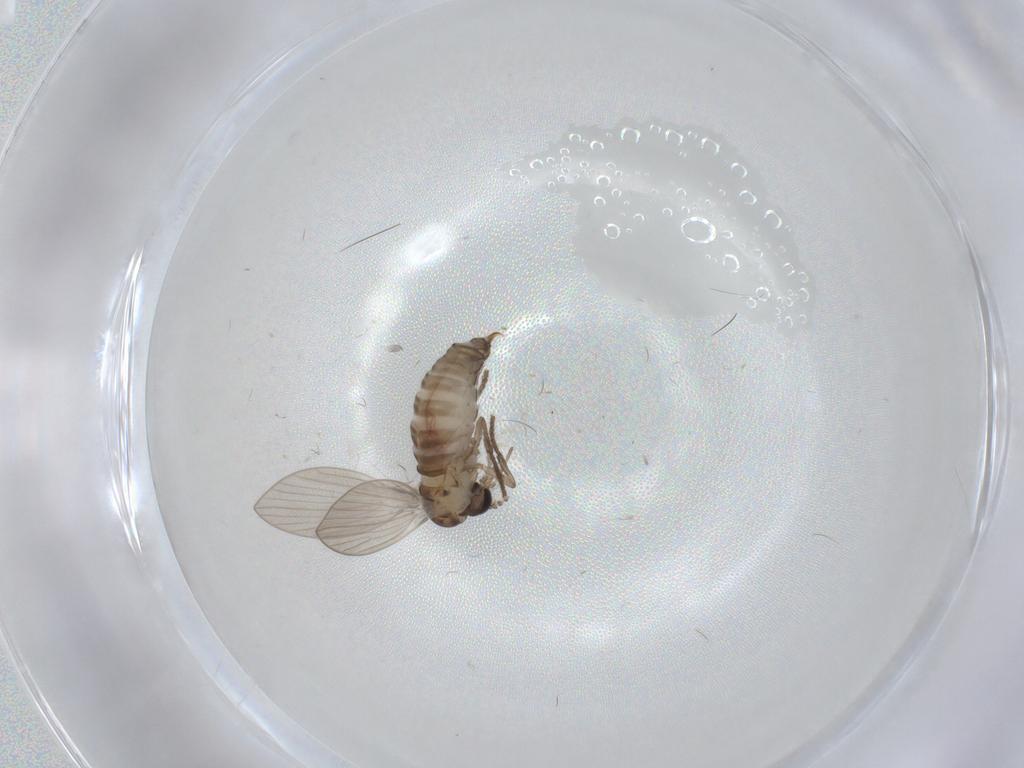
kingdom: Animalia
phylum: Arthropoda
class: Insecta
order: Diptera
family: Psychodidae
